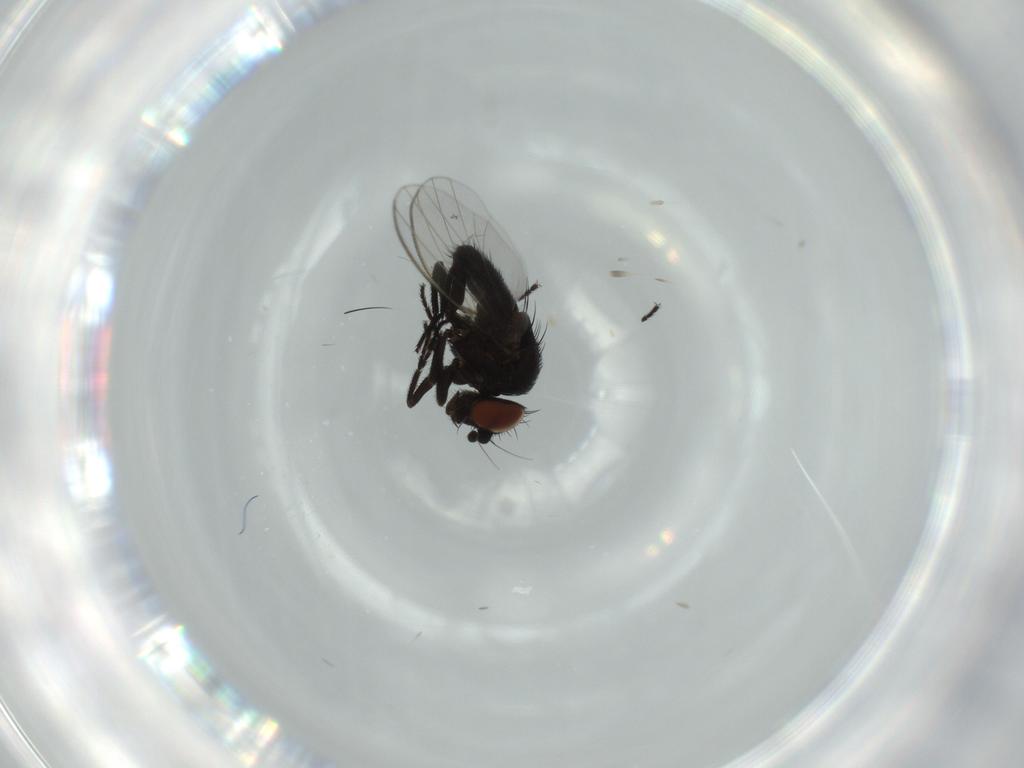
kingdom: Animalia
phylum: Arthropoda
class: Insecta
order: Diptera
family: Milichiidae
